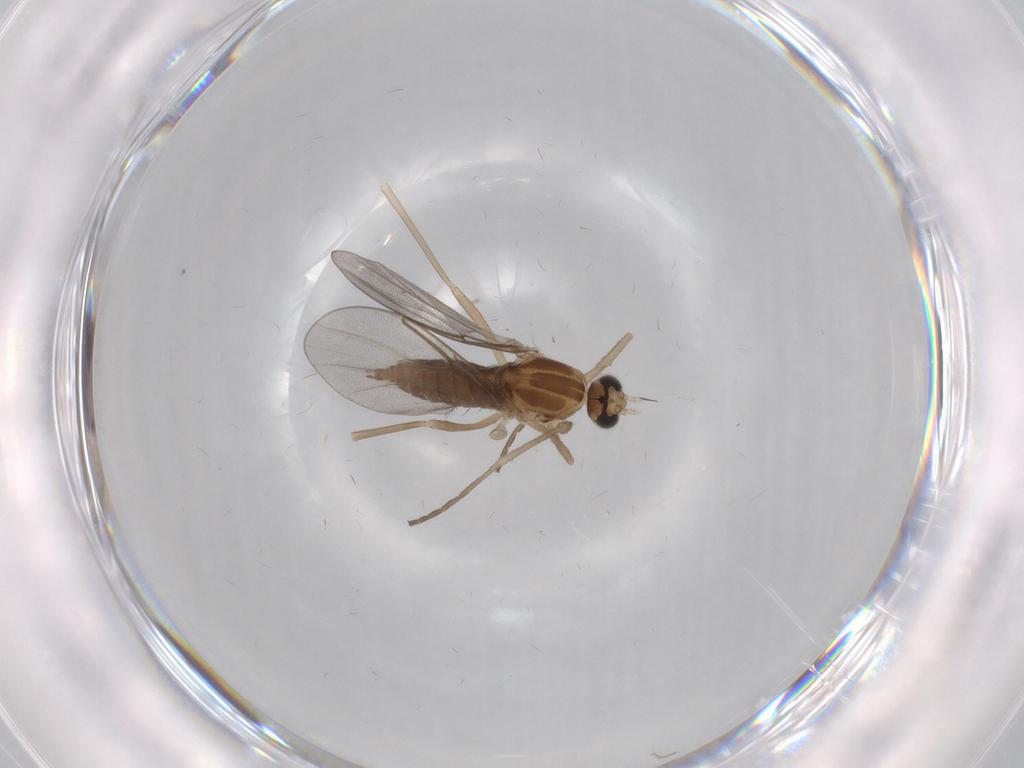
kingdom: Animalia
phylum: Arthropoda
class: Insecta
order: Diptera
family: Cecidomyiidae
